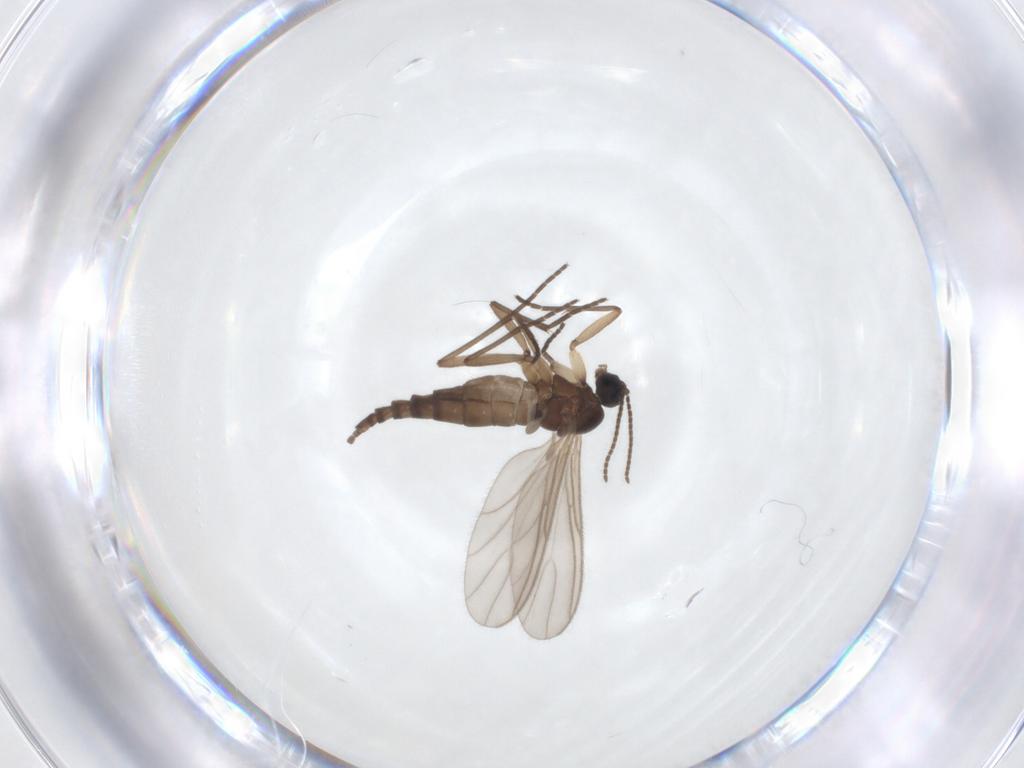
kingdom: Animalia
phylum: Arthropoda
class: Insecta
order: Diptera
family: Sciaridae
